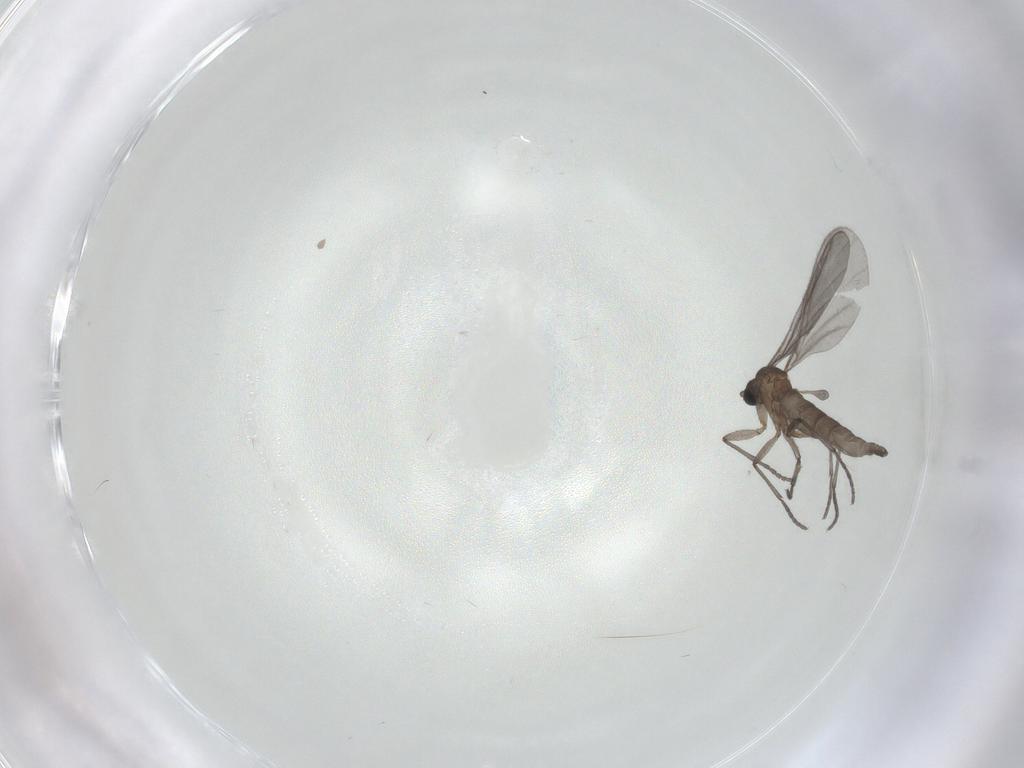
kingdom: Animalia
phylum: Arthropoda
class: Insecta
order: Diptera
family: Sciaridae
